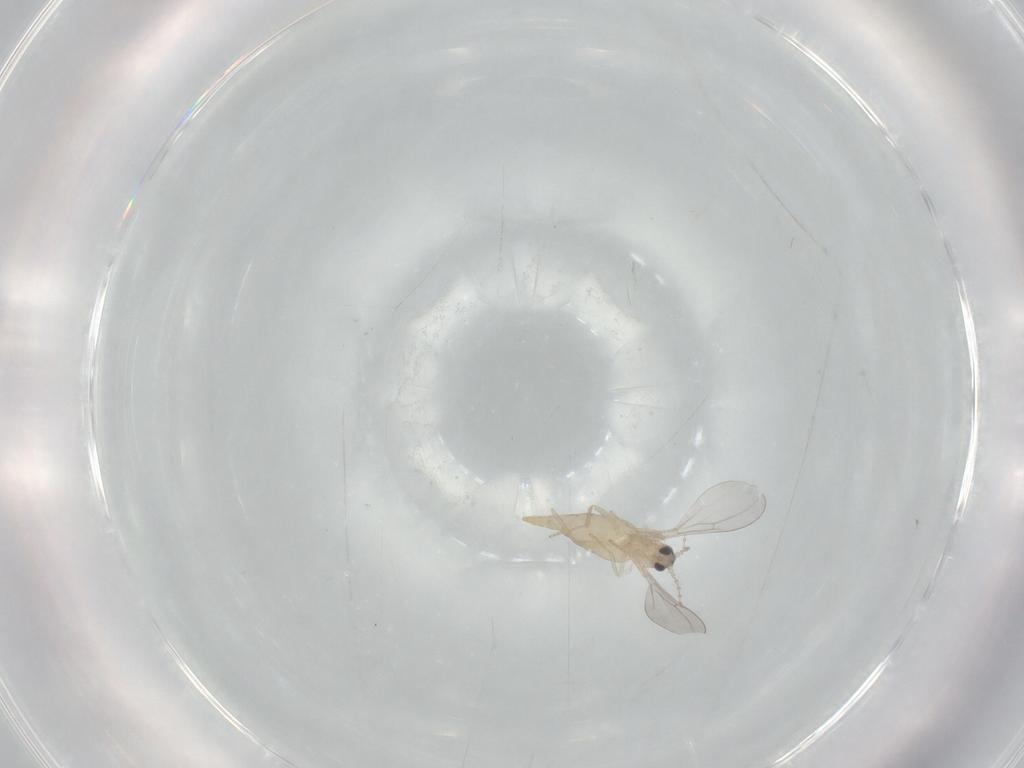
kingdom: Animalia
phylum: Arthropoda
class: Insecta
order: Diptera
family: Cecidomyiidae
